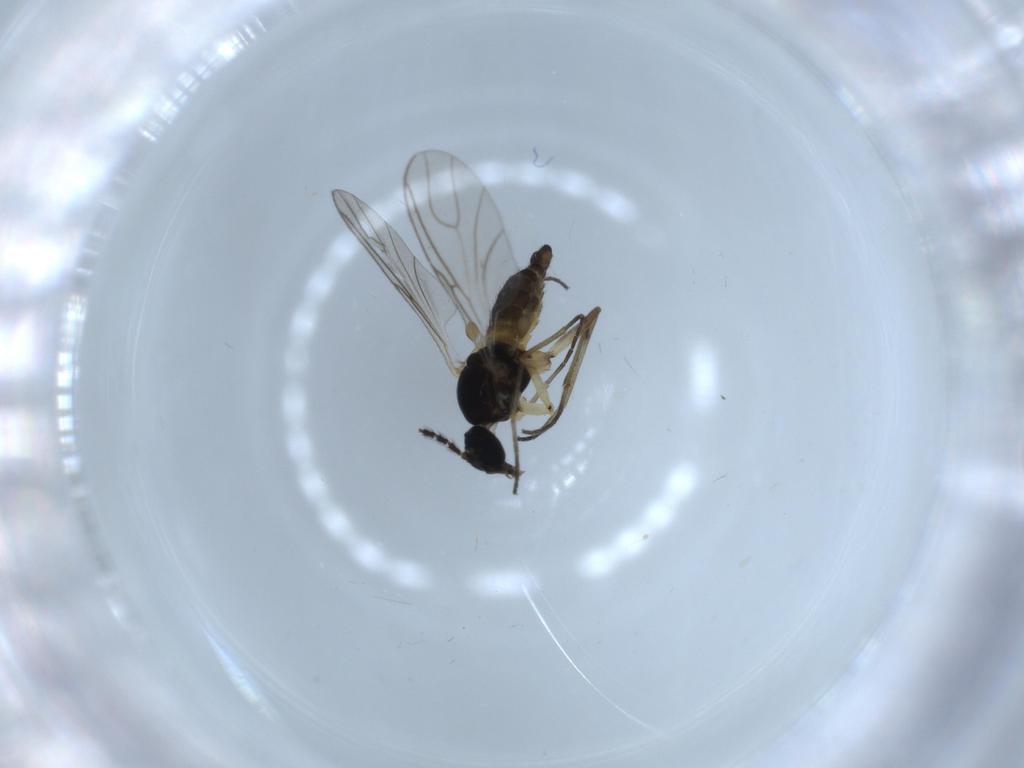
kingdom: Animalia
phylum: Arthropoda
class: Insecta
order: Diptera
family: Sciaridae
